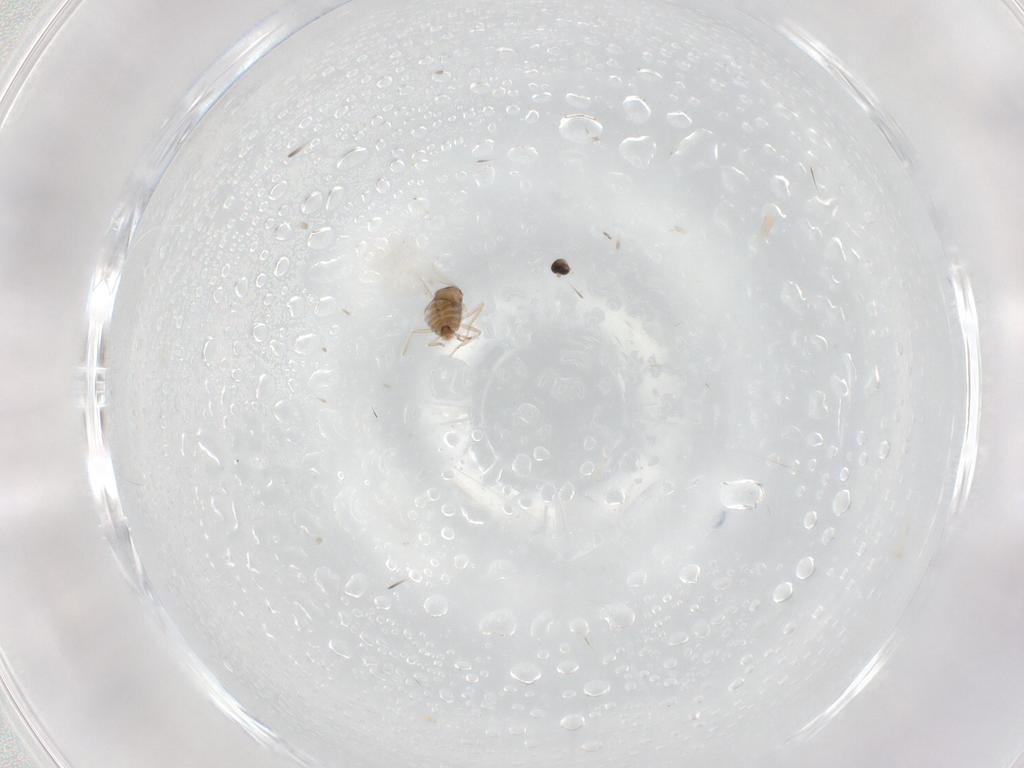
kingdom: Animalia
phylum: Arthropoda
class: Insecta
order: Diptera
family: Cecidomyiidae
